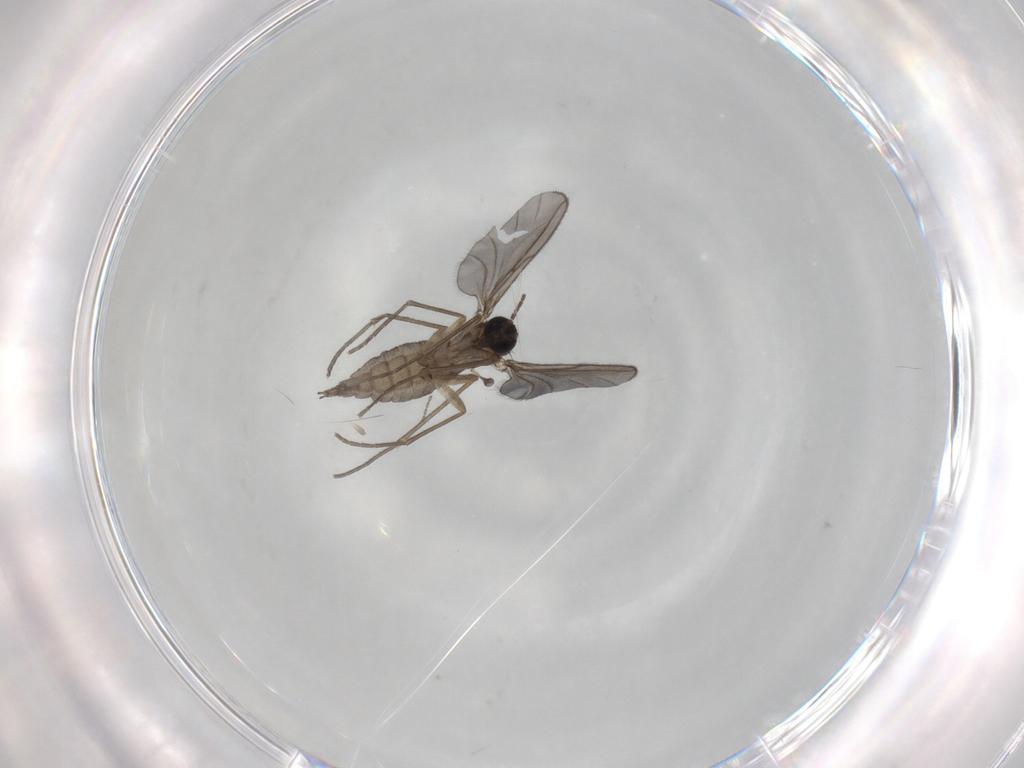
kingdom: Animalia
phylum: Arthropoda
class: Insecta
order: Diptera
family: Sciaridae
